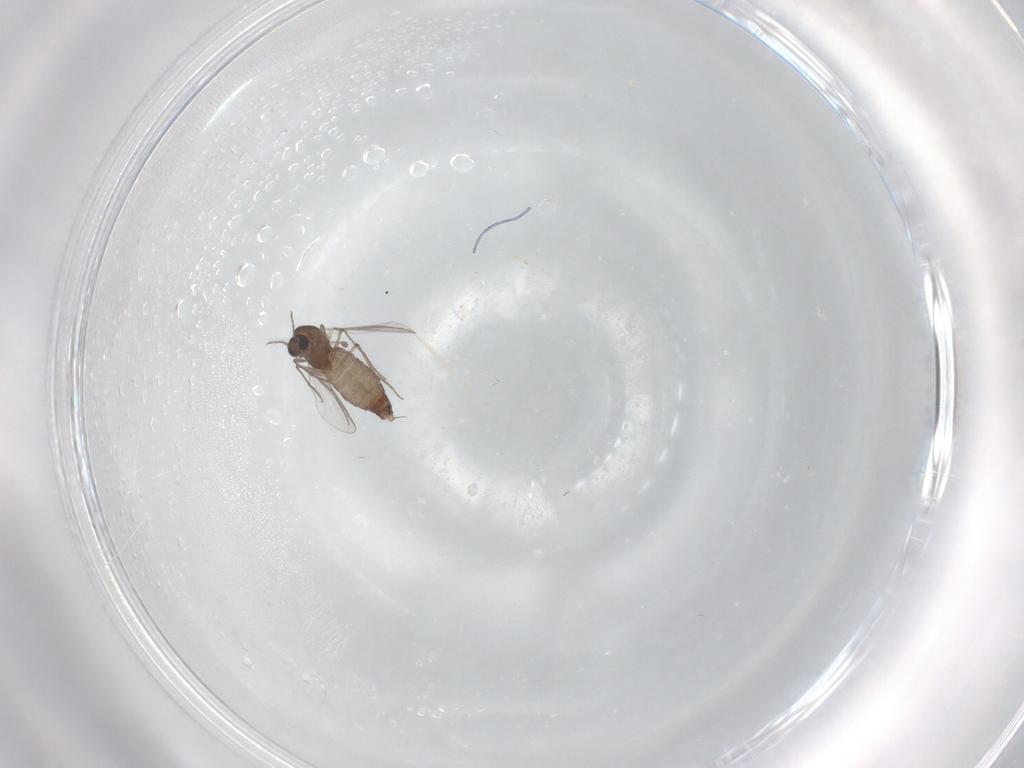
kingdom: Animalia
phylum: Arthropoda
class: Insecta
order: Diptera
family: Chironomidae
